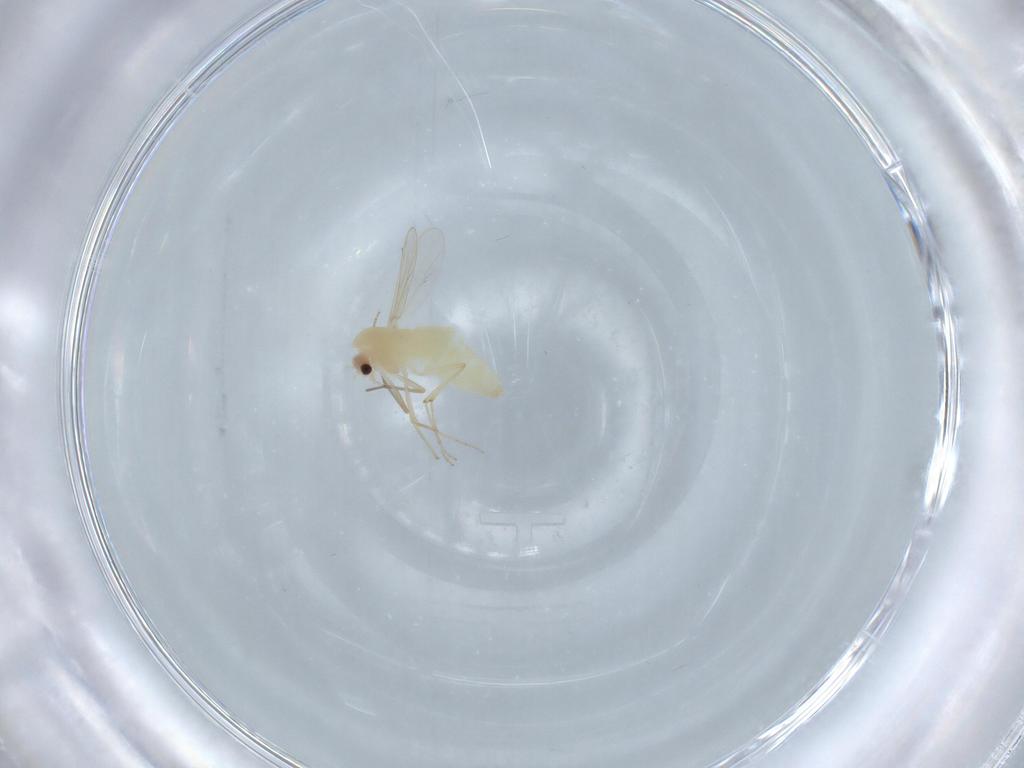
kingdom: Animalia
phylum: Arthropoda
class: Insecta
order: Diptera
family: Chironomidae
